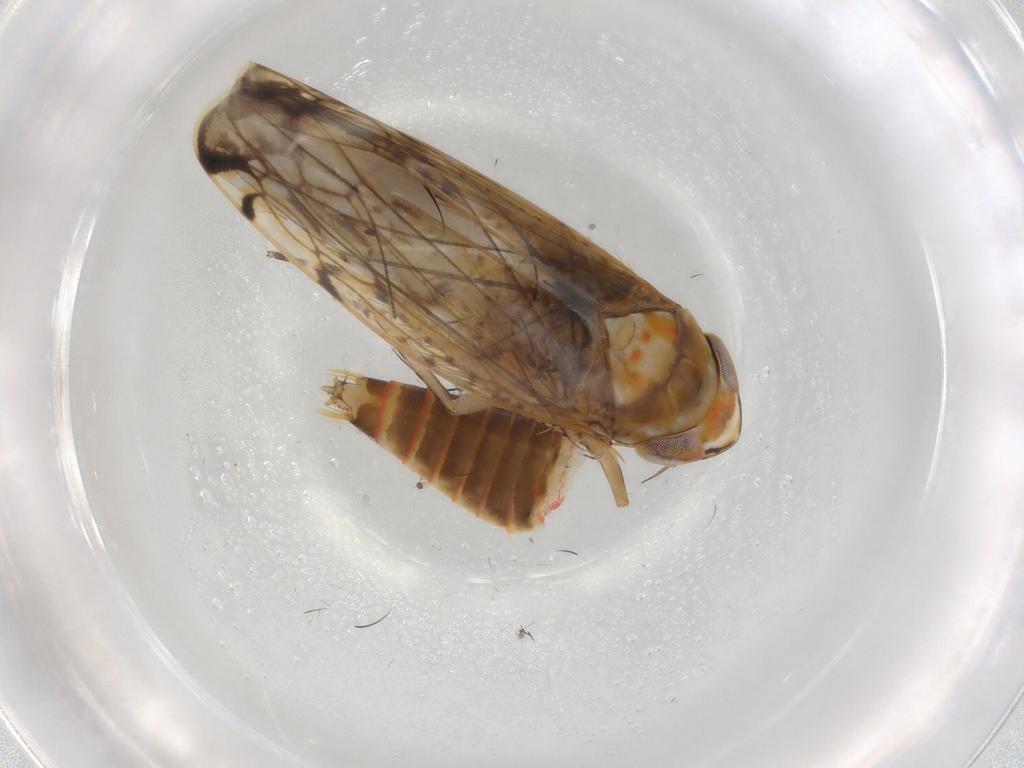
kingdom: Animalia
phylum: Arthropoda
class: Insecta
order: Hemiptera
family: Cicadellidae
